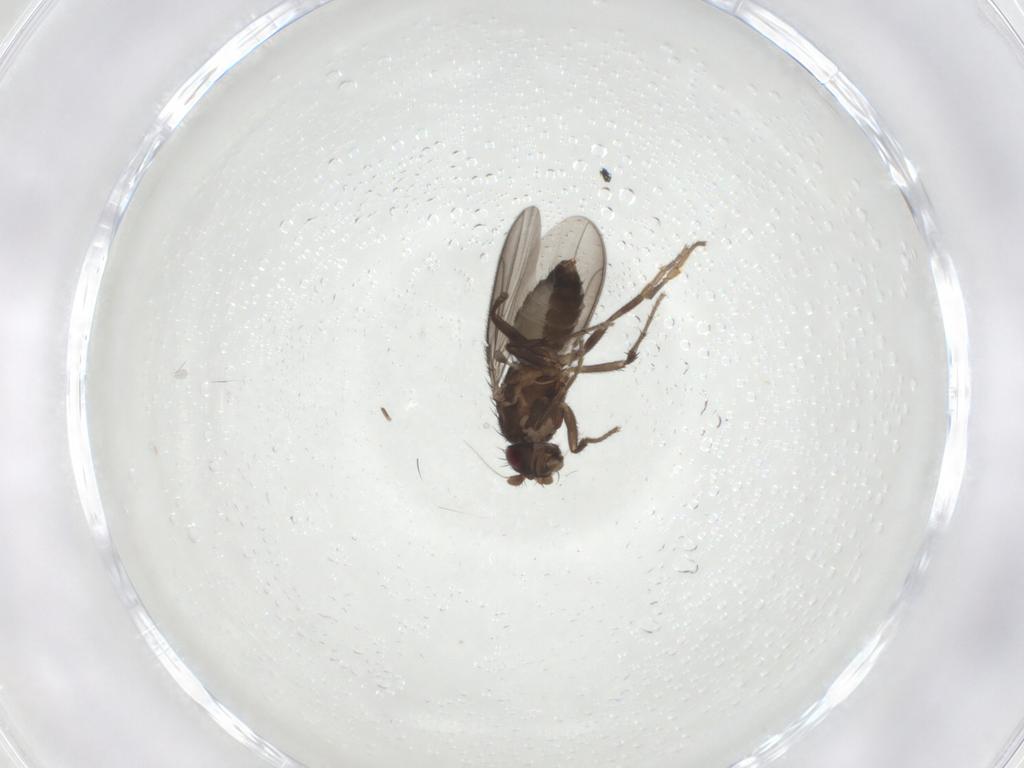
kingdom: Animalia
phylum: Arthropoda
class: Insecta
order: Diptera
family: Sphaeroceridae
